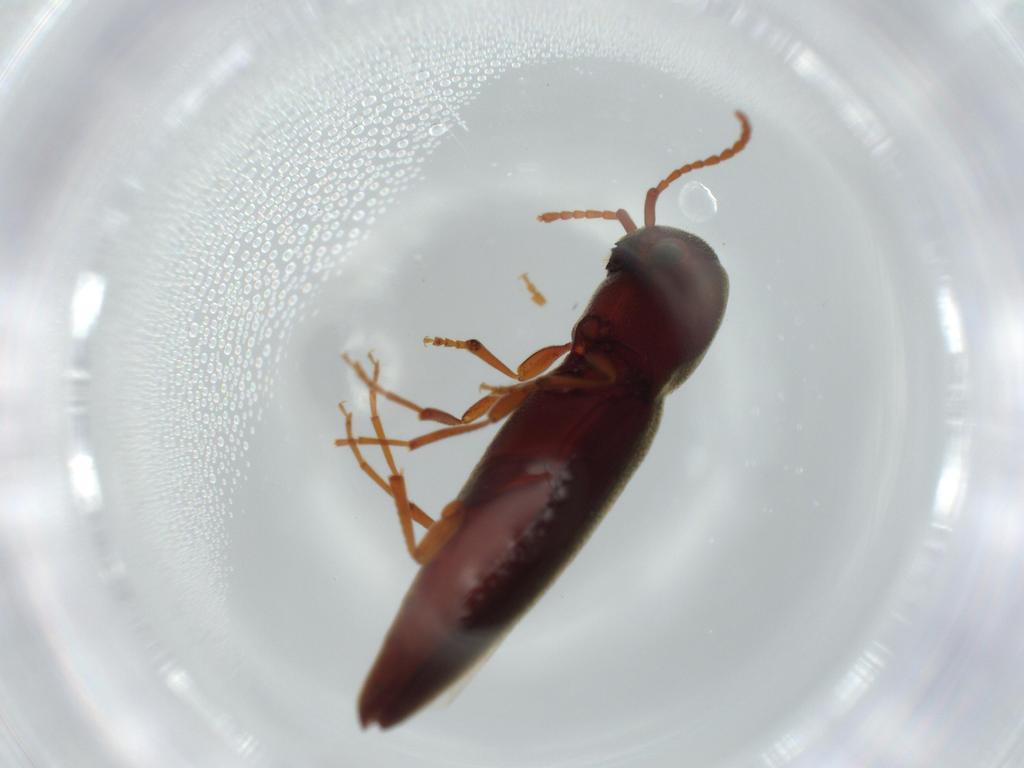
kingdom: Animalia
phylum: Arthropoda
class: Insecta
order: Coleoptera
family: Eucnemidae
